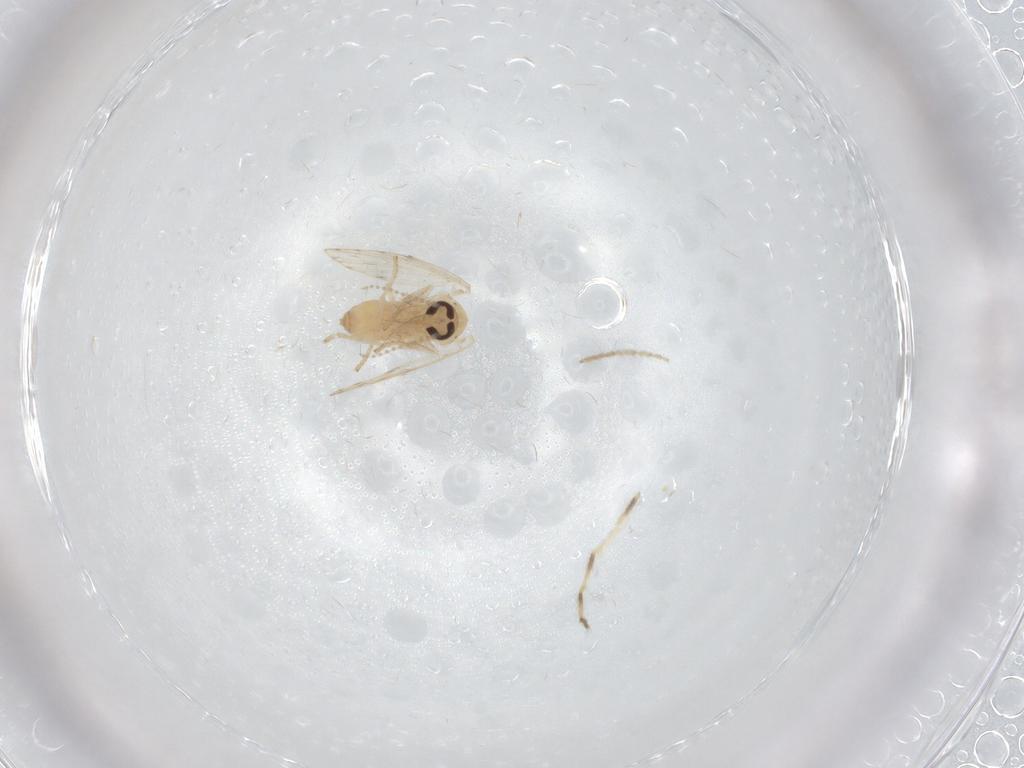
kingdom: Animalia
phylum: Arthropoda
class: Insecta
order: Diptera
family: Psychodidae
